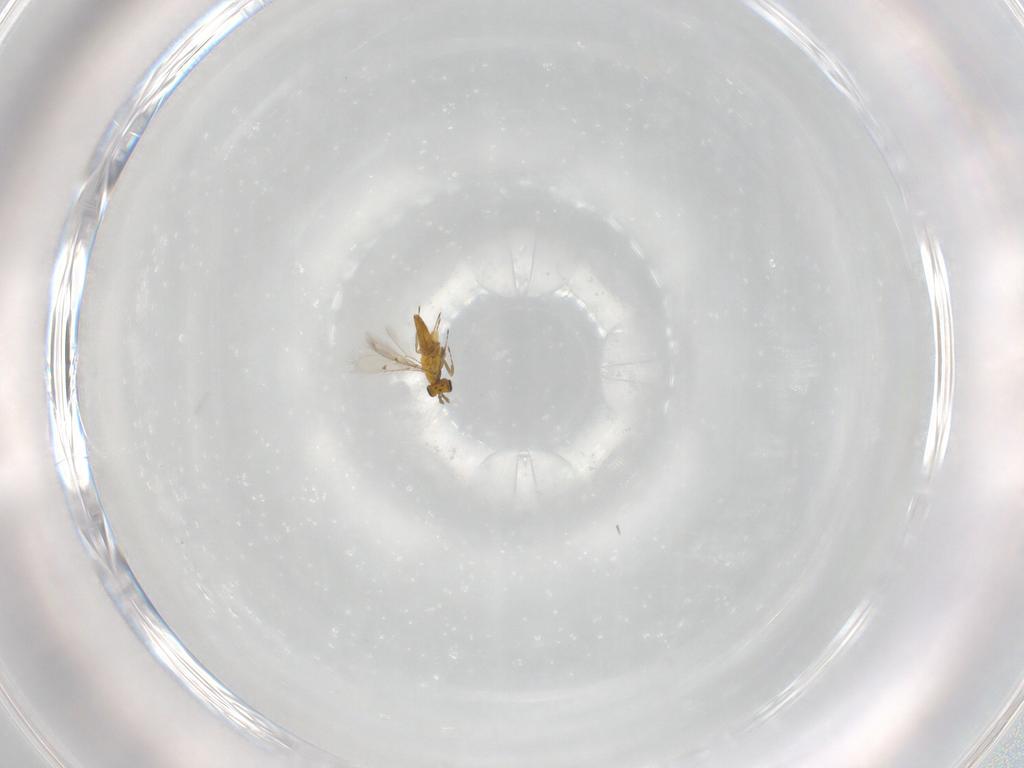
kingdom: Animalia
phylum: Arthropoda
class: Insecta
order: Hymenoptera
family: Trichogrammatidae
